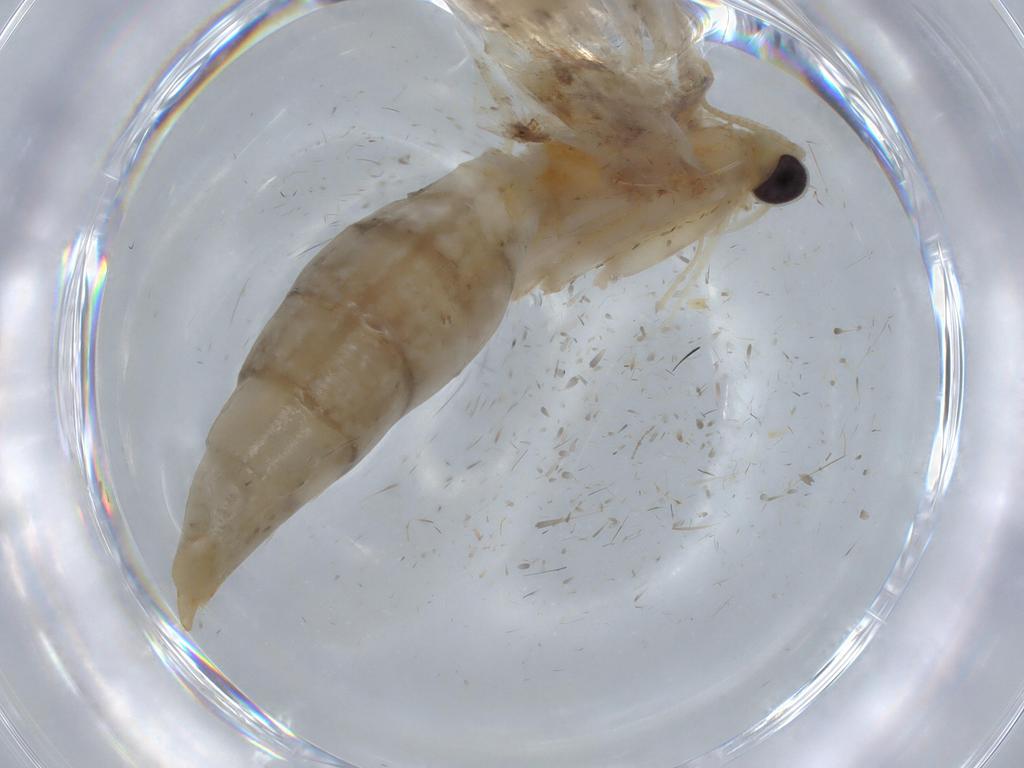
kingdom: Animalia
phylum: Arthropoda
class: Insecta
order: Lepidoptera
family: Crambidae
